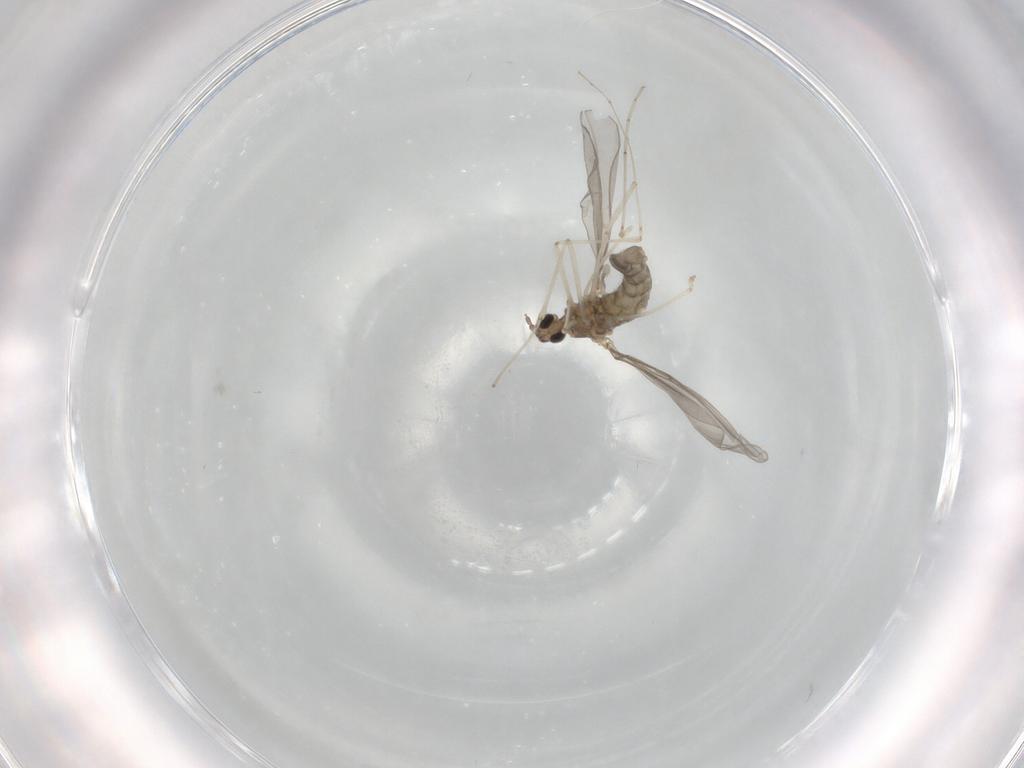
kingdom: Animalia
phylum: Arthropoda
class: Insecta
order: Diptera
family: Cecidomyiidae
